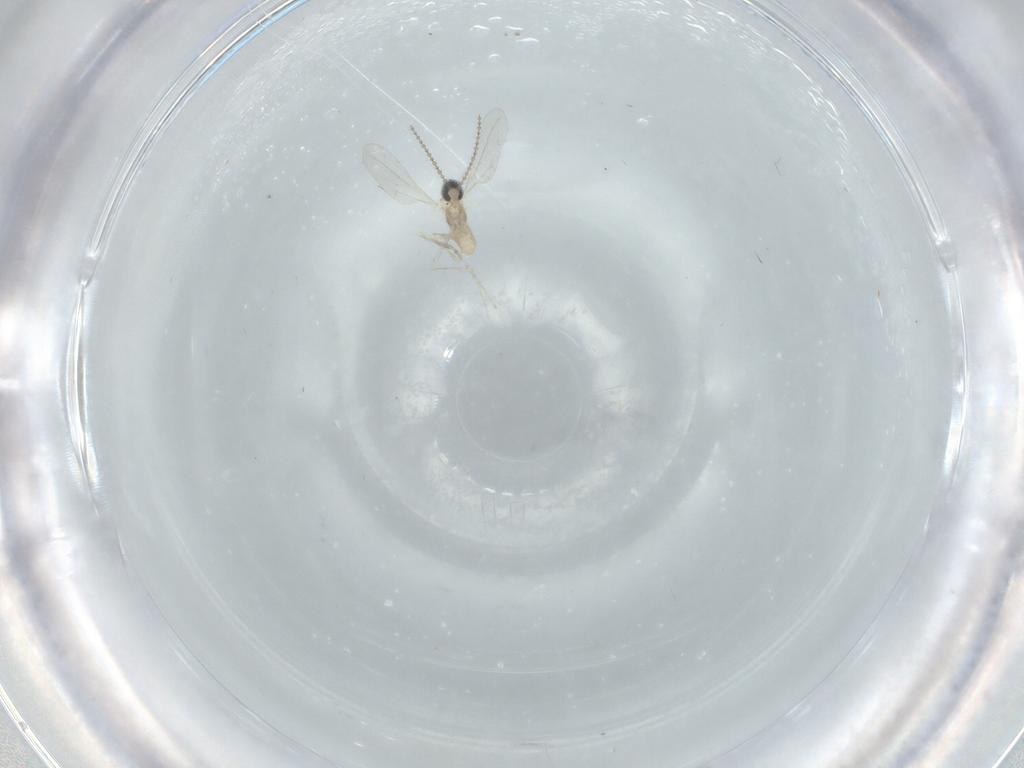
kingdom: Animalia
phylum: Arthropoda
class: Insecta
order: Diptera
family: Cecidomyiidae
